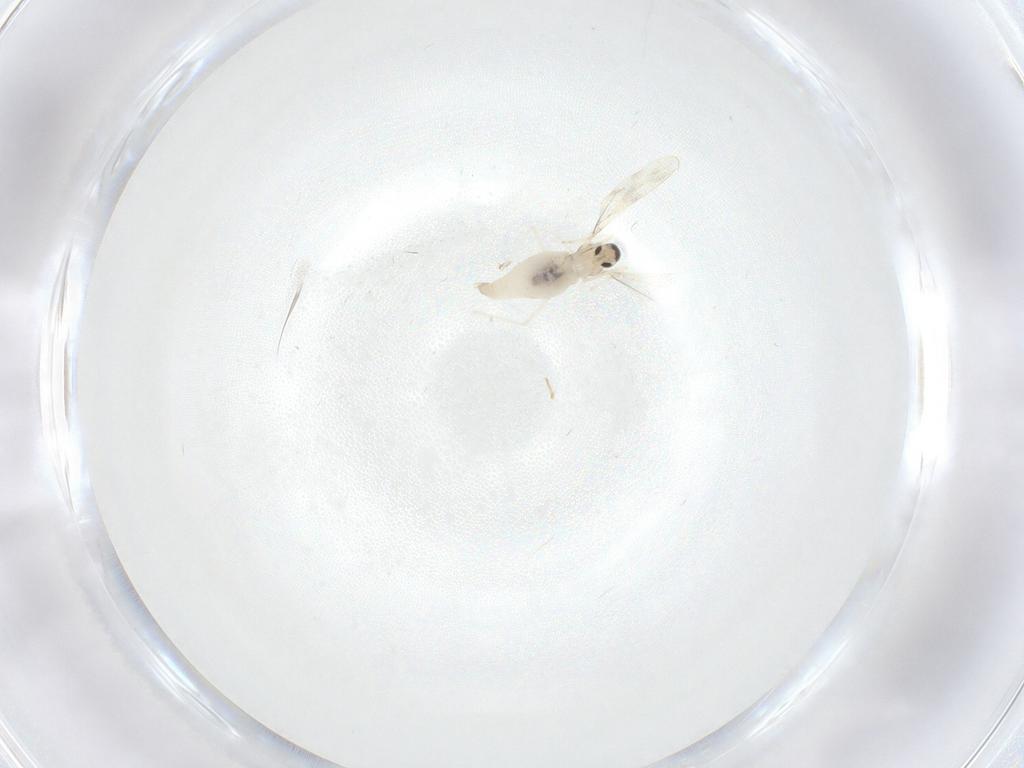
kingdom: Animalia
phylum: Arthropoda
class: Insecta
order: Diptera
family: Cecidomyiidae
